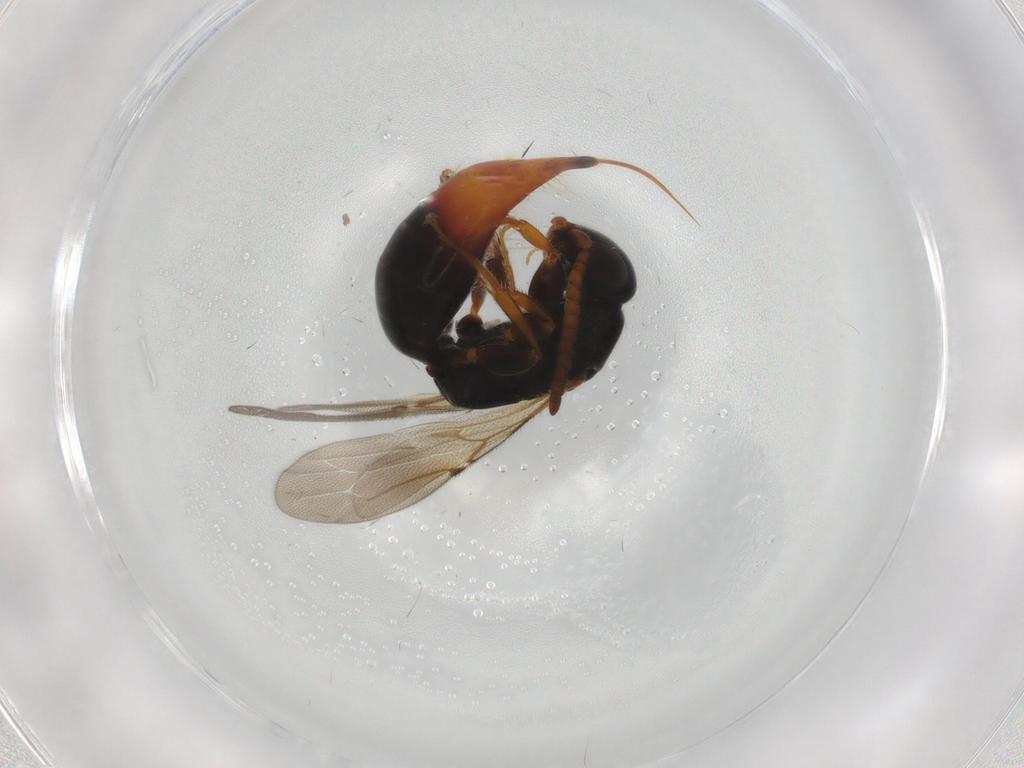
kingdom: Animalia
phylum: Arthropoda
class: Insecta
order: Hymenoptera
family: Bethylidae
